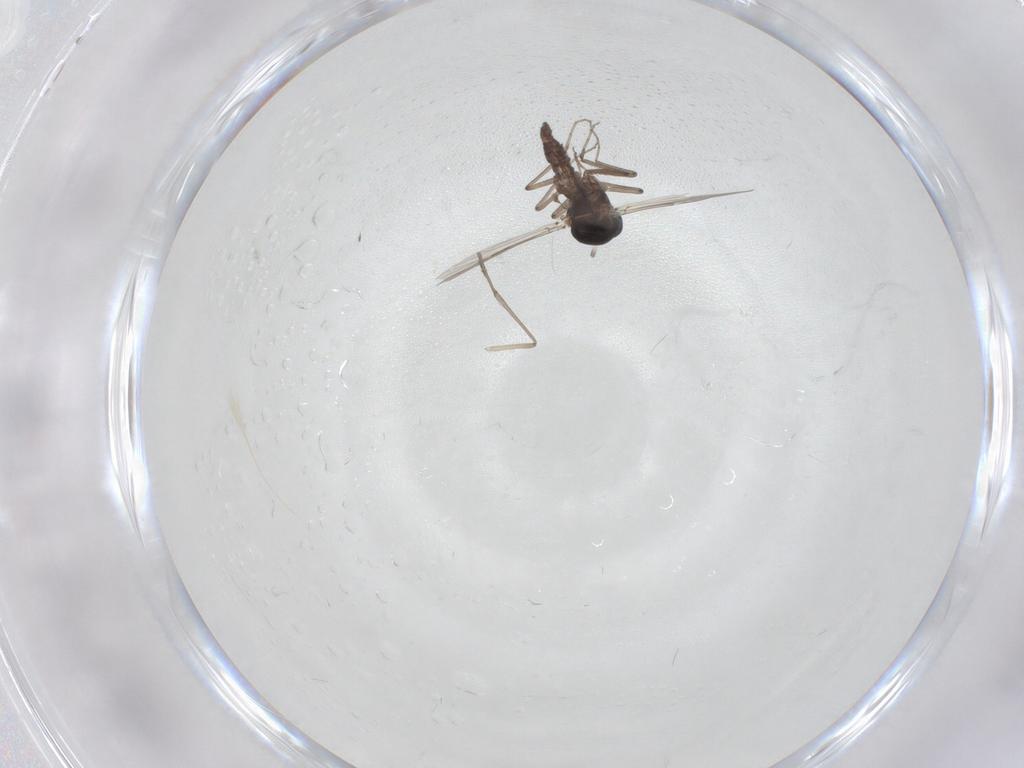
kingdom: Animalia
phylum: Arthropoda
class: Insecta
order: Diptera
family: Psychodidae
